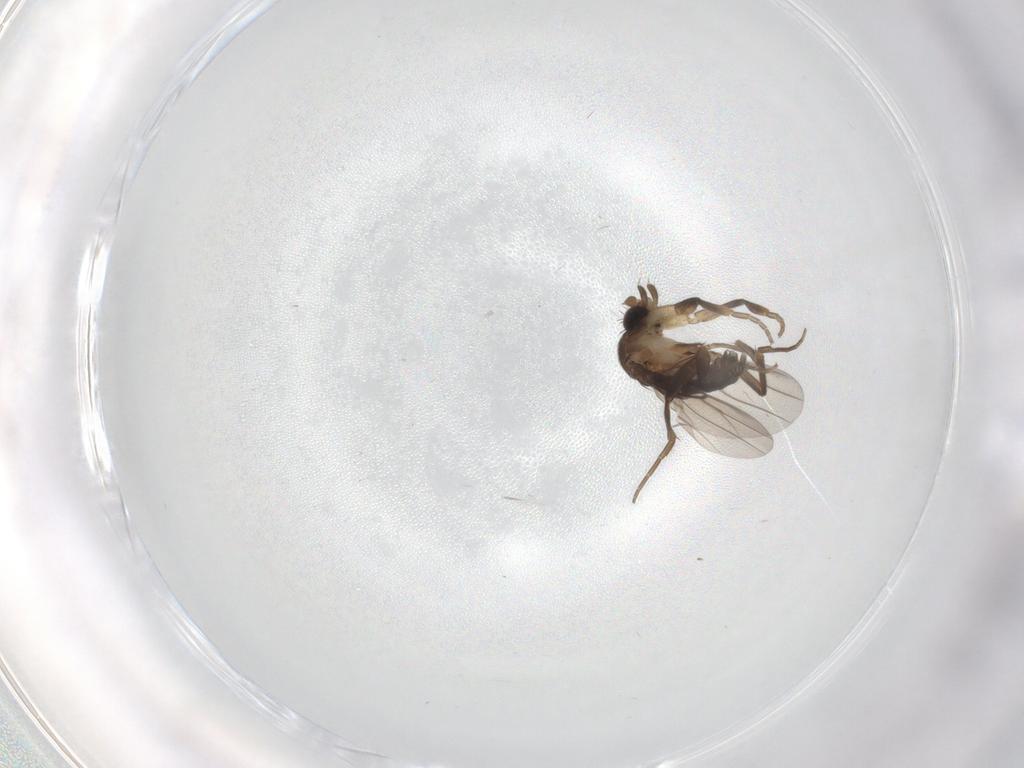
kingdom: Animalia
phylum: Arthropoda
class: Insecta
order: Diptera
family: Phoridae
